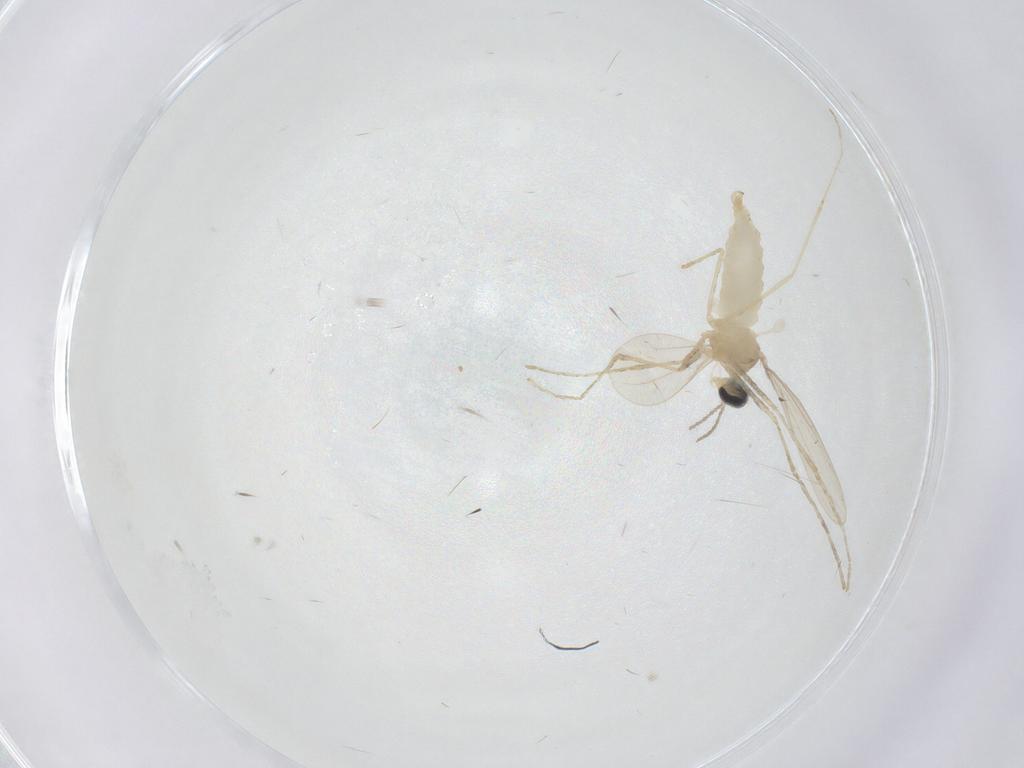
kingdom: Animalia
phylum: Arthropoda
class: Insecta
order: Diptera
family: Cecidomyiidae
